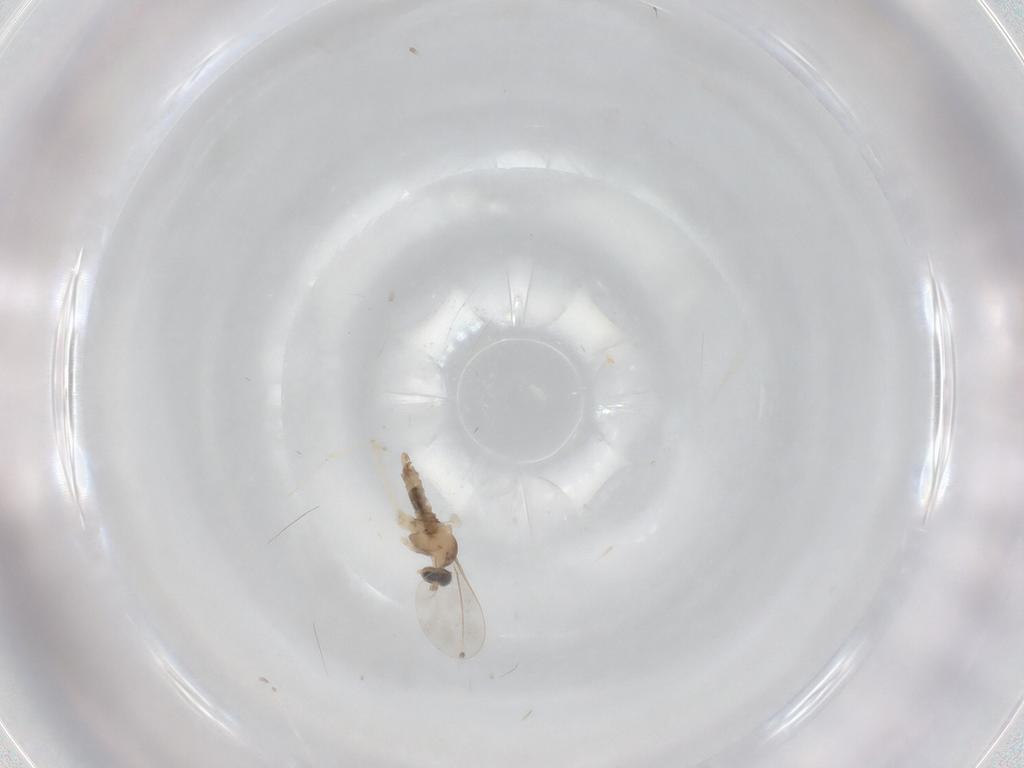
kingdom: Animalia
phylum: Arthropoda
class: Insecta
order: Diptera
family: Cecidomyiidae
